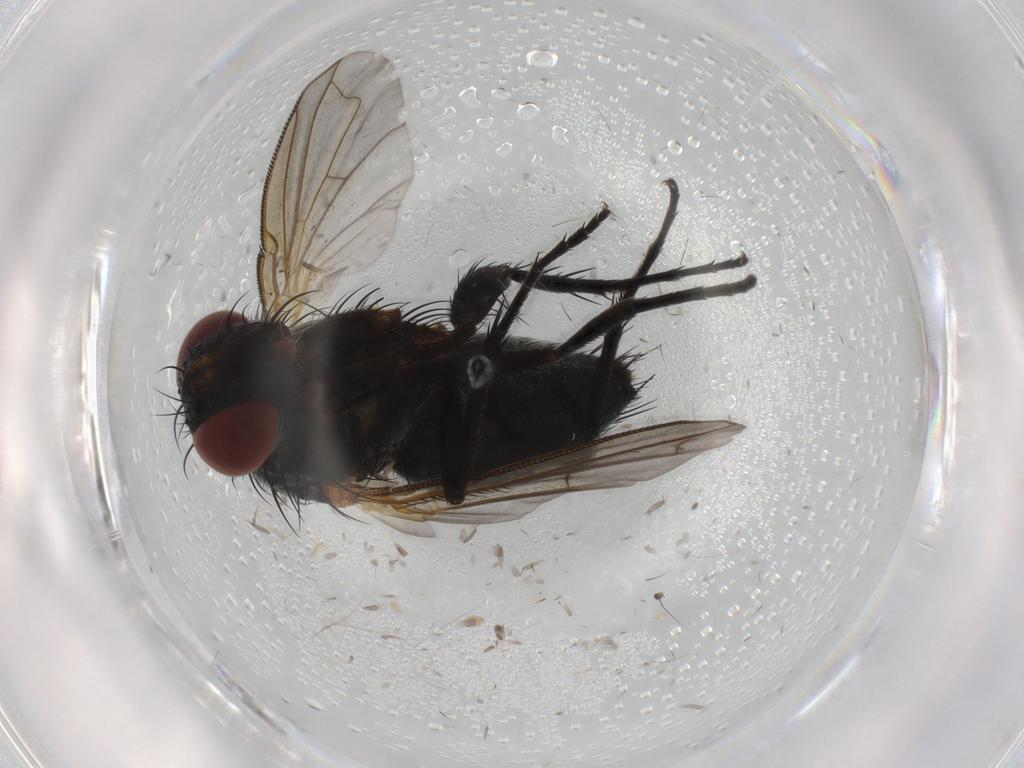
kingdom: Animalia
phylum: Arthropoda
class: Insecta
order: Diptera
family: Tachinidae
